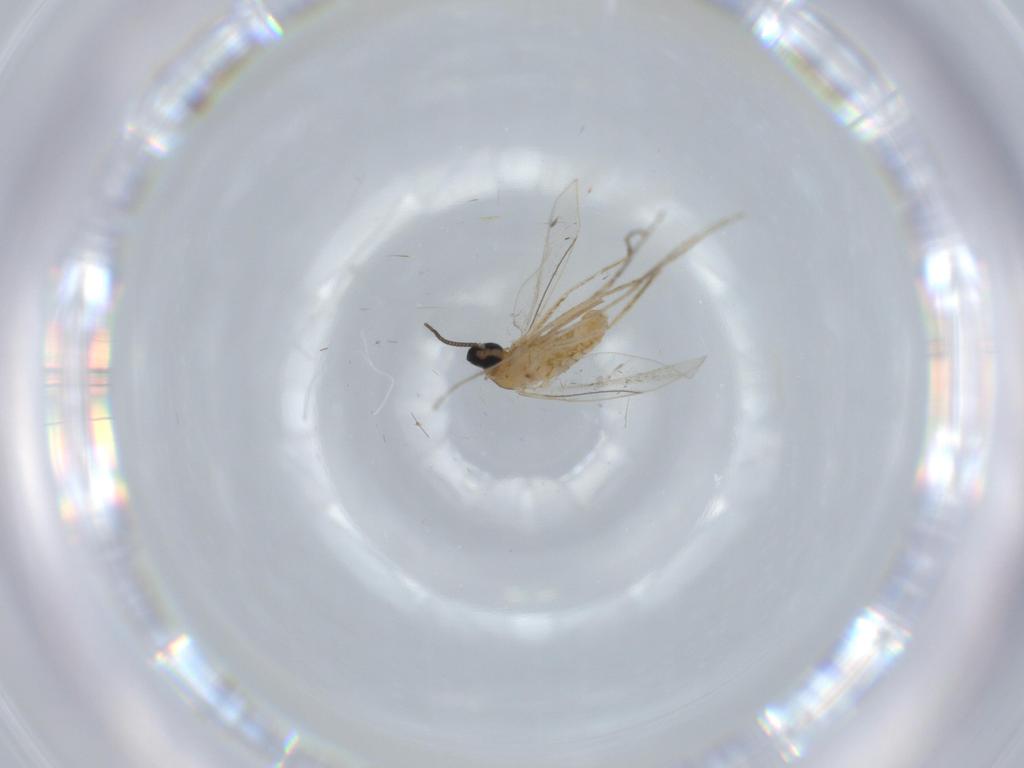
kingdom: Animalia
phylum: Arthropoda
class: Insecta
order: Diptera
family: Cecidomyiidae
